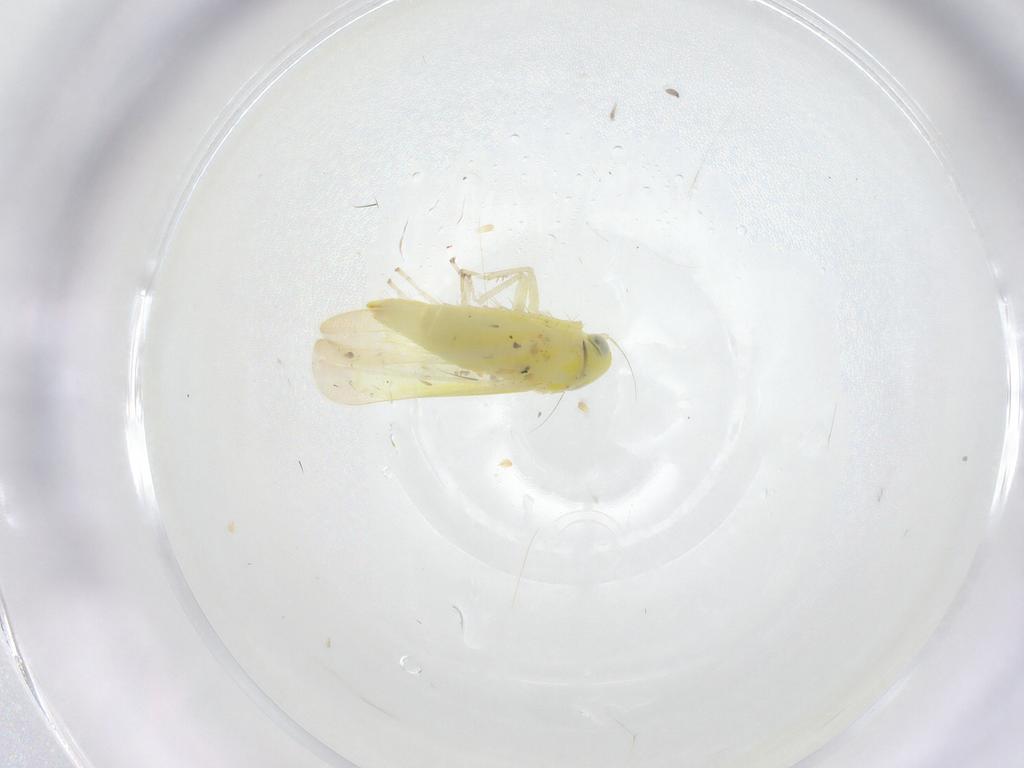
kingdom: Animalia
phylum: Arthropoda
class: Insecta
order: Hemiptera
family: Cicadellidae
